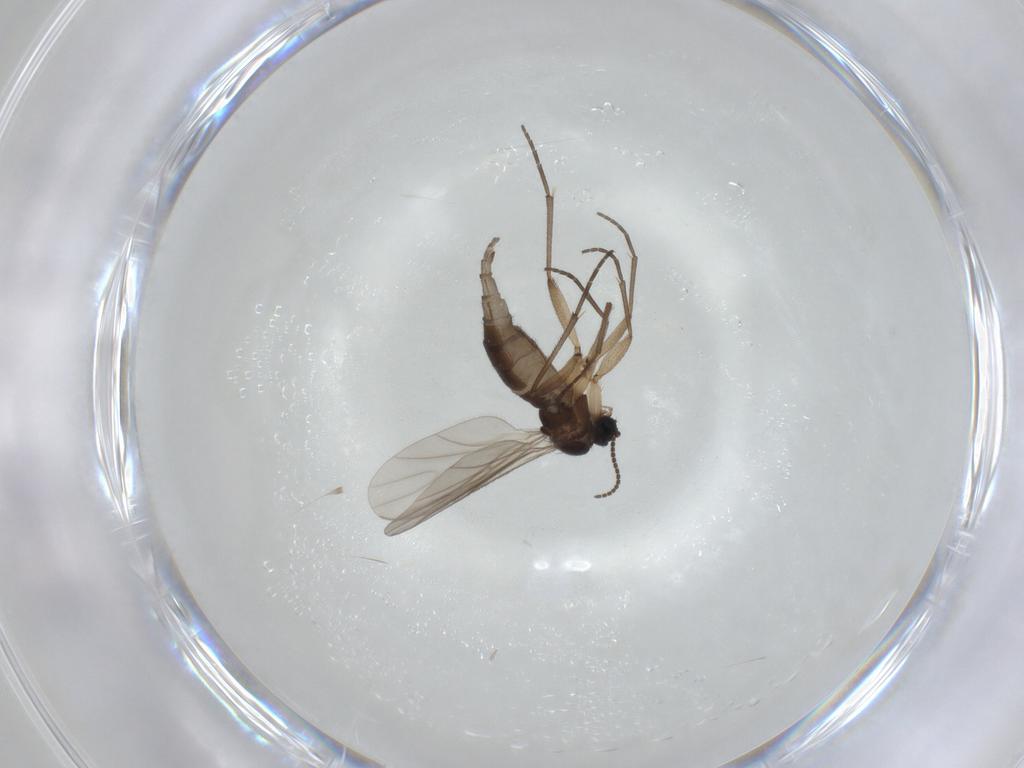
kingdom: Animalia
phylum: Arthropoda
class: Insecta
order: Diptera
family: Sciaridae
